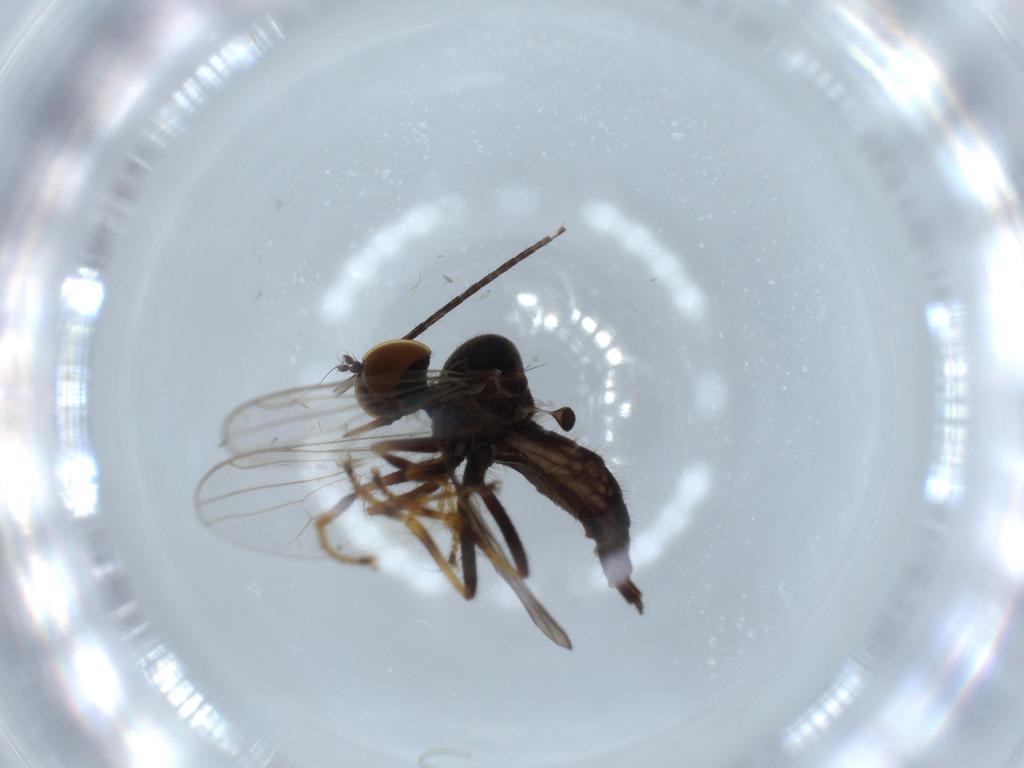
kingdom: Animalia
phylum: Arthropoda
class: Insecta
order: Diptera
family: Hybotidae
